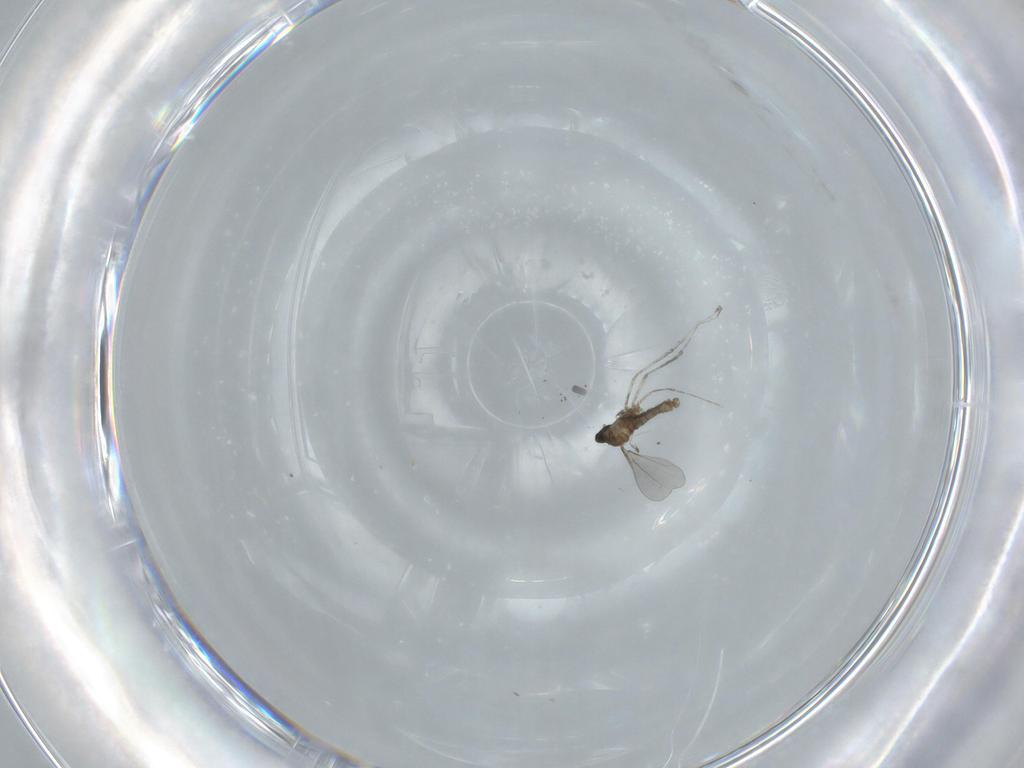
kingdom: Animalia
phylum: Arthropoda
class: Insecta
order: Diptera
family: Cecidomyiidae
